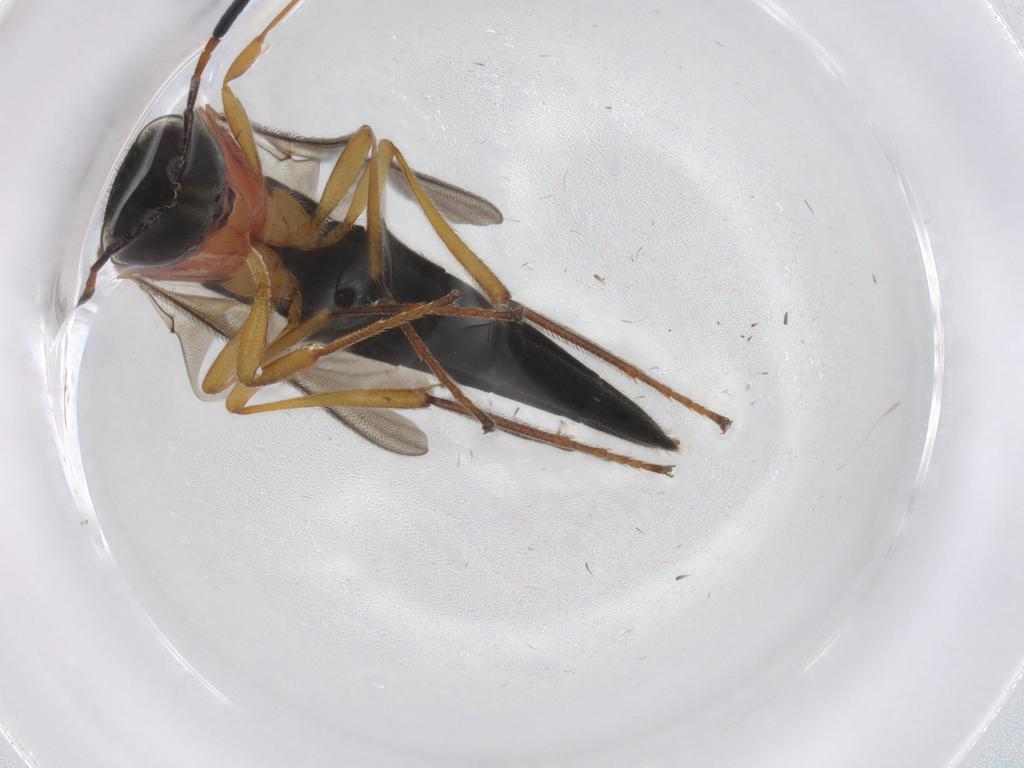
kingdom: Animalia
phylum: Arthropoda
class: Insecta
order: Hymenoptera
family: Scelionidae
